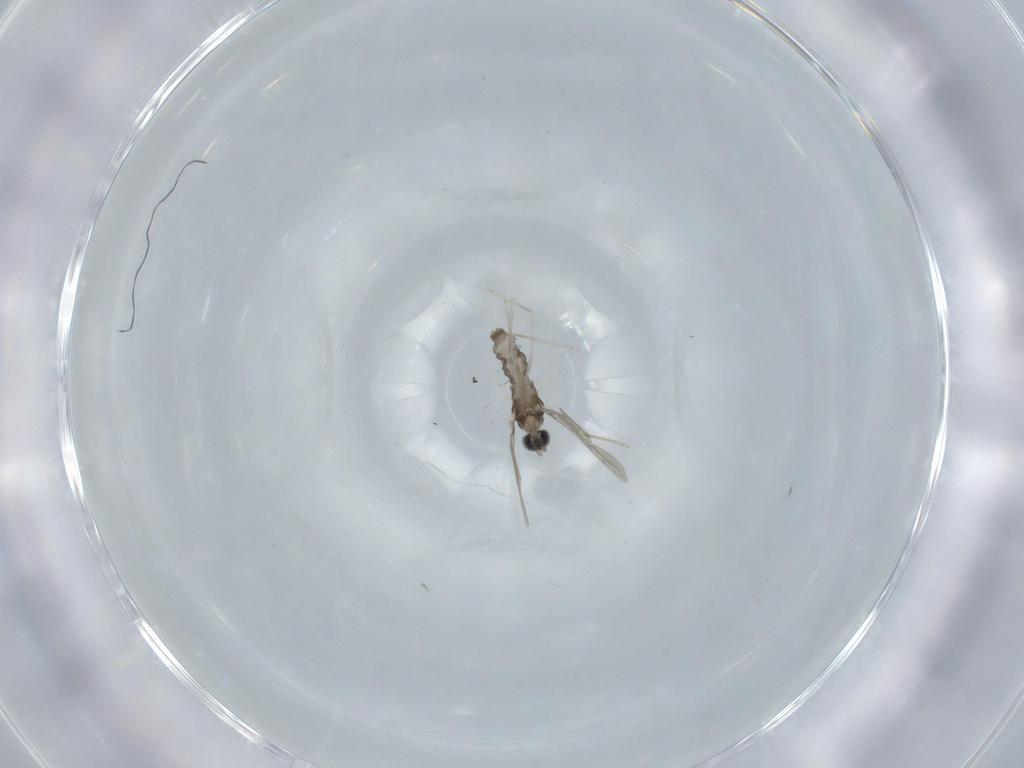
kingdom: Animalia
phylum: Arthropoda
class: Insecta
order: Diptera
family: Cecidomyiidae
